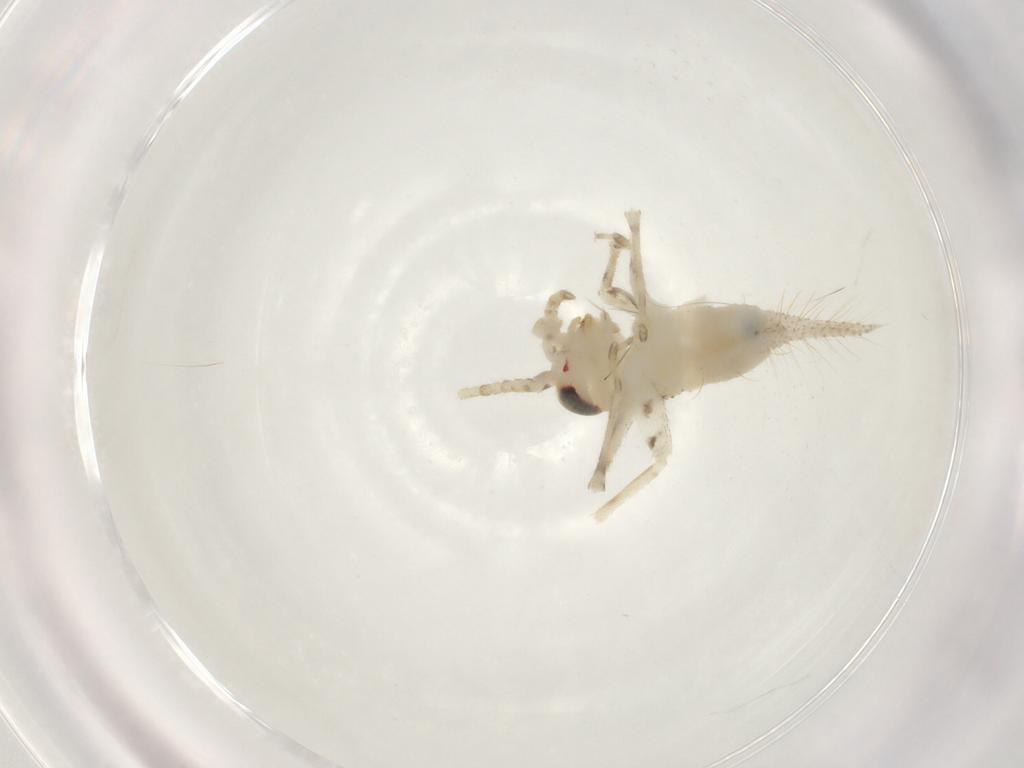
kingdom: Animalia
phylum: Arthropoda
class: Insecta
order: Orthoptera
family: Trigonidiidae
